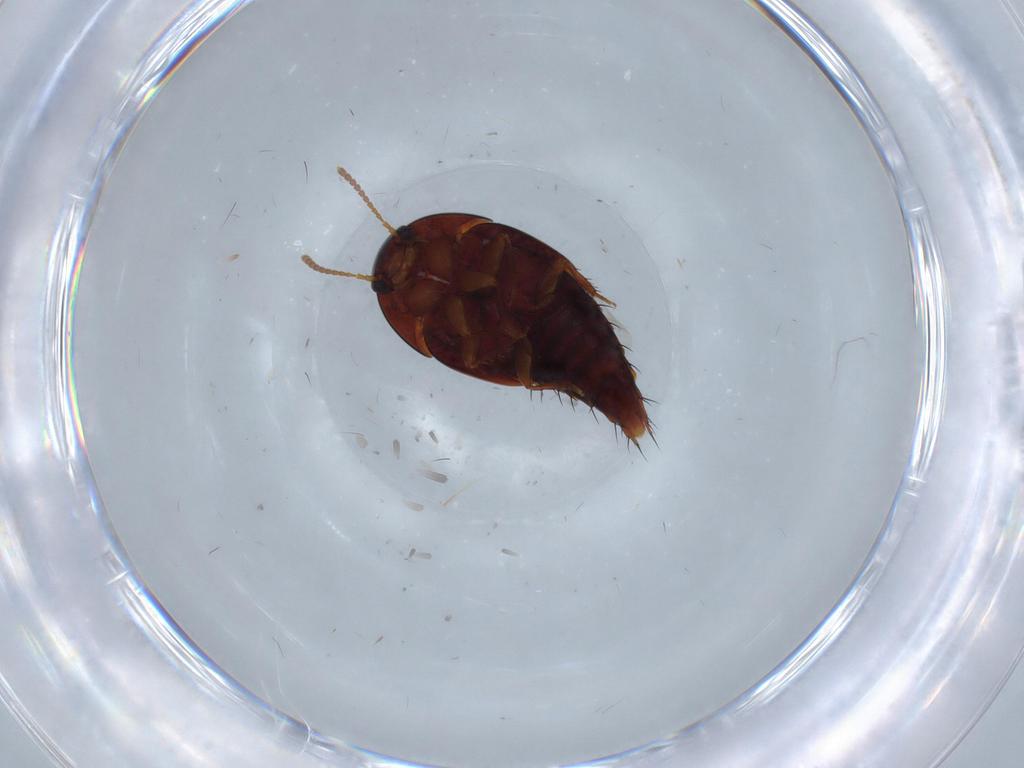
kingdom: Animalia
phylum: Arthropoda
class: Insecta
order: Coleoptera
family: Staphylinidae
